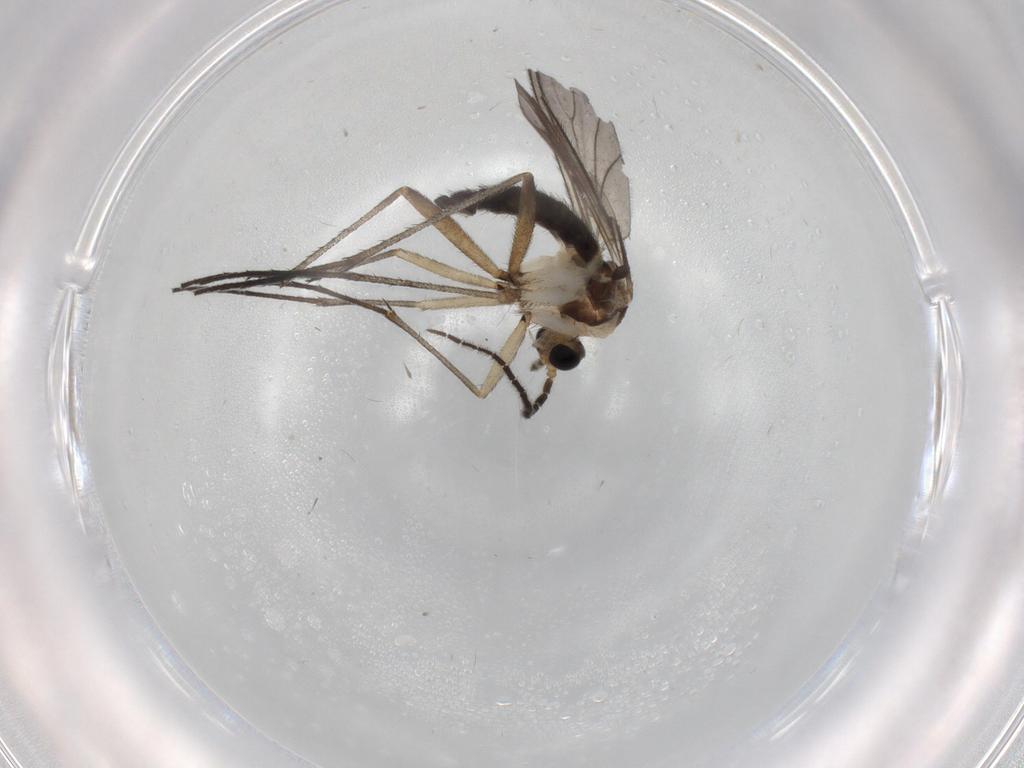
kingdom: Animalia
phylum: Arthropoda
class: Insecta
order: Diptera
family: Sciaridae
